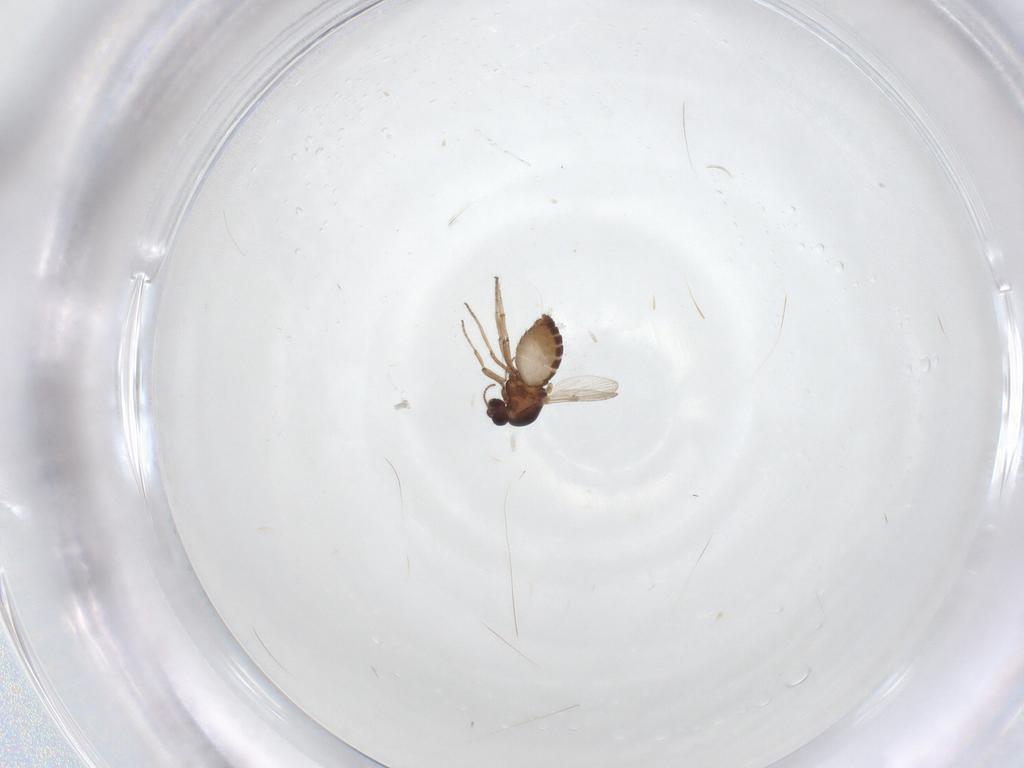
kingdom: Animalia
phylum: Arthropoda
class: Insecta
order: Diptera
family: Ceratopogonidae
